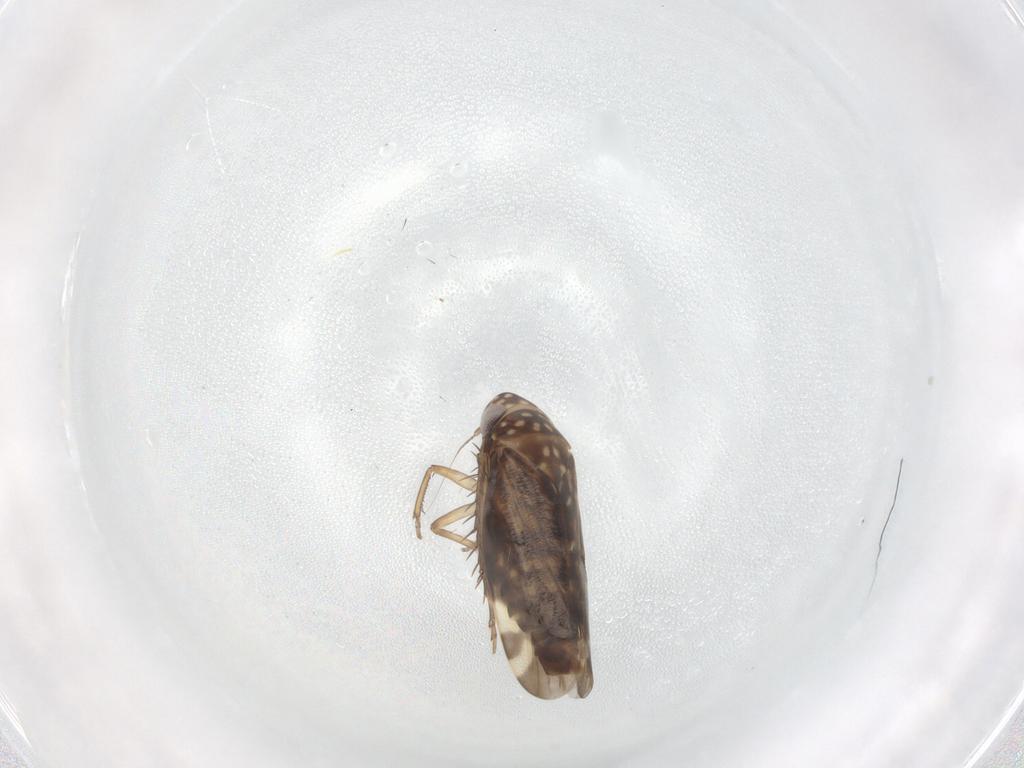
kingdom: Animalia
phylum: Arthropoda
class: Insecta
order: Hemiptera
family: Cicadellidae
